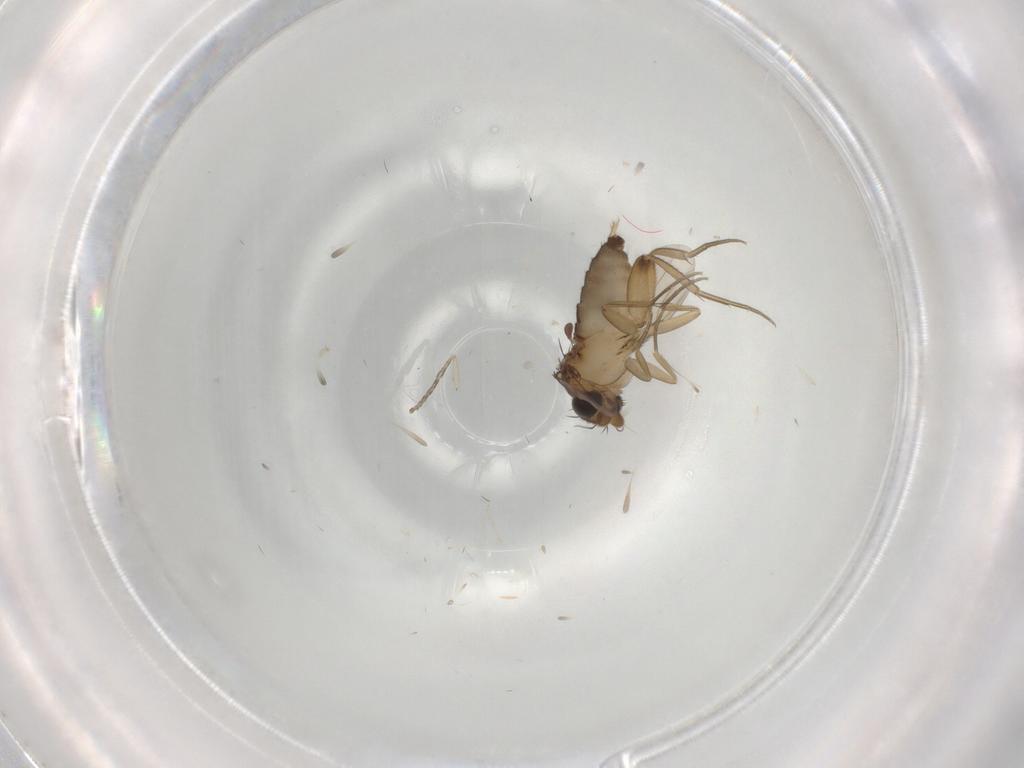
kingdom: Animalia
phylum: Arthropoda
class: Insecta
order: Diptera
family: Phoridae
